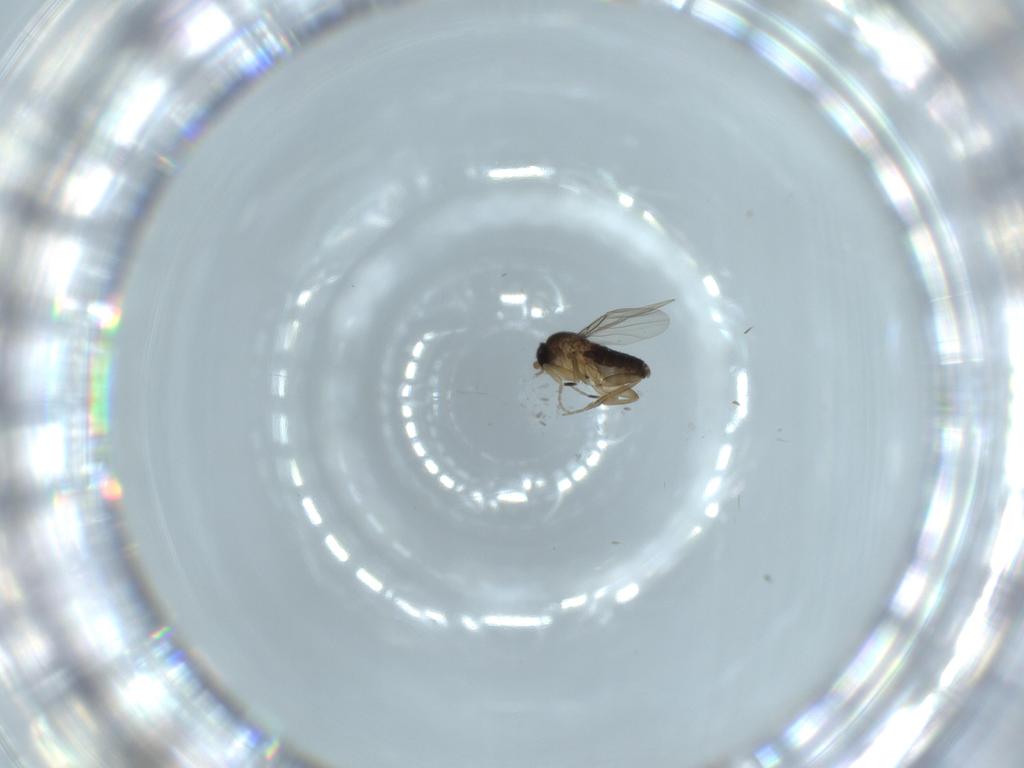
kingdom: Animalia
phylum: Arthropoda
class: Insecta
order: Diptera
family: Phoridae
